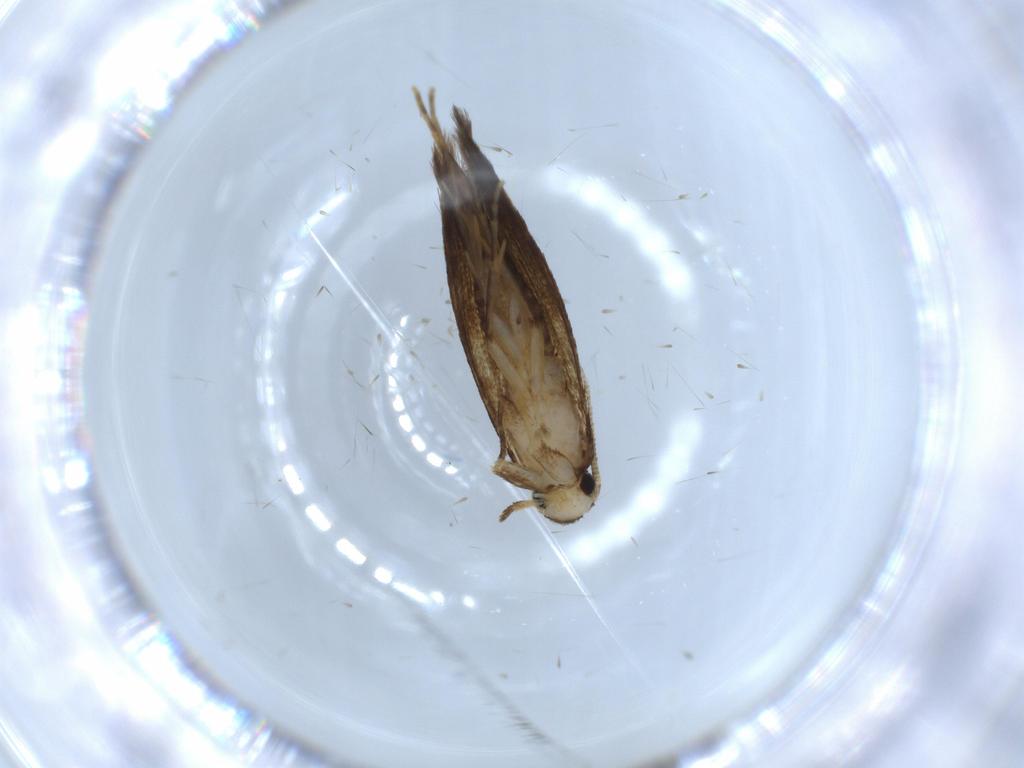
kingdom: Animalia
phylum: Arthropoda
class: Insecta
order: Lepidoptera
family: Tineidae
